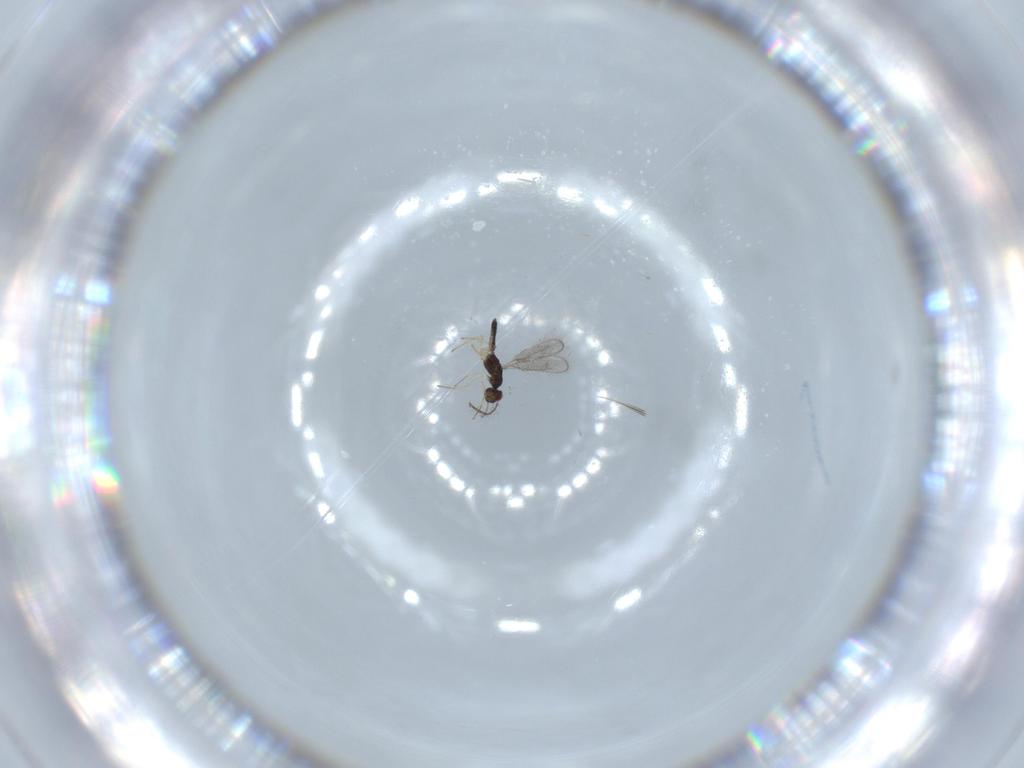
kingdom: Animalia
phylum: Arthropoda
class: Insecta
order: Hymenoptera
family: Pteromalidae
